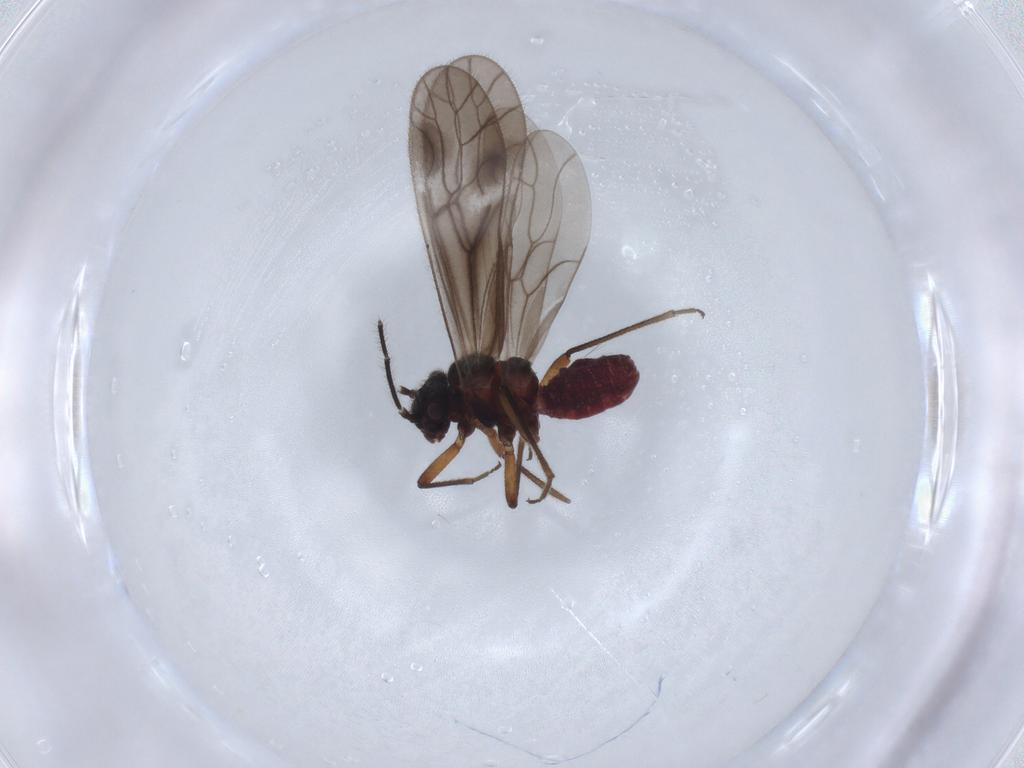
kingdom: Animalia
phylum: Arthropoda
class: Insecta
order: Psocodea
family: Trichopsocidae
